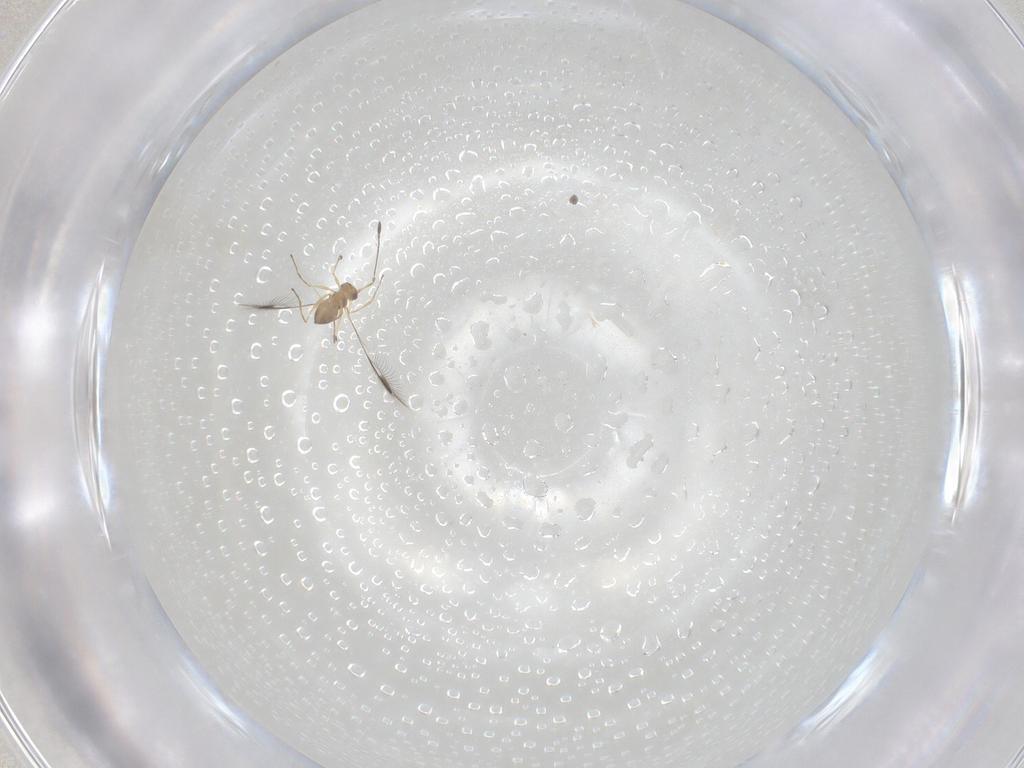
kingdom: Animalia
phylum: Arthropoda
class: Insecta
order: Hymenoptera
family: Mymaridae
